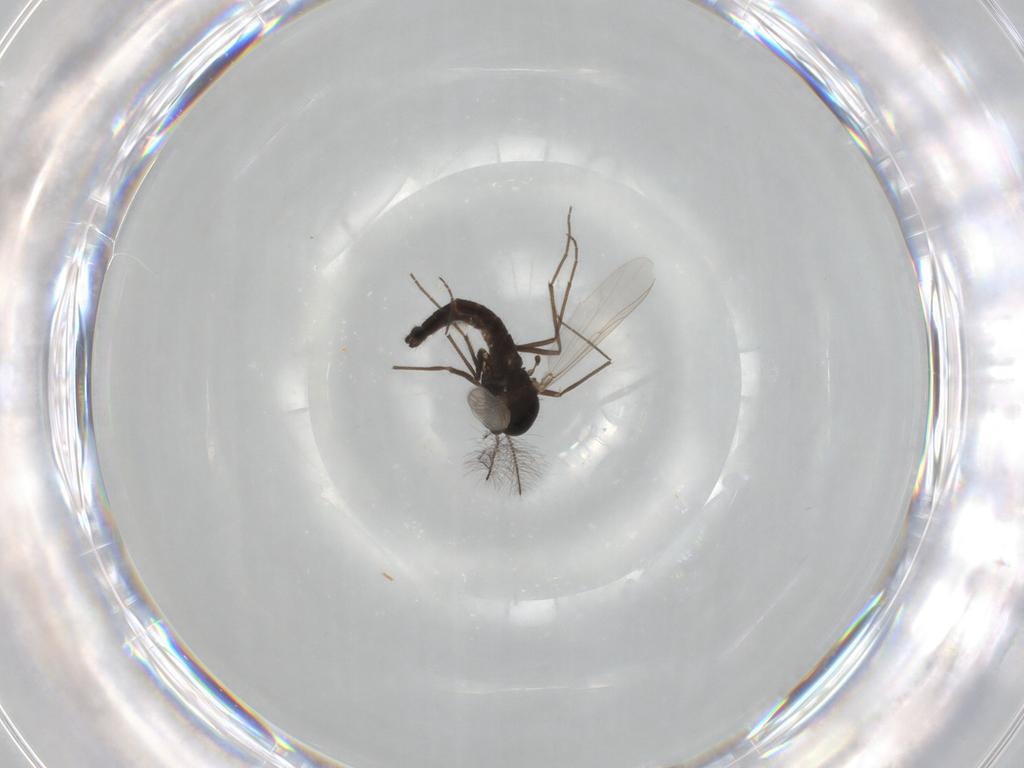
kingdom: Animalia
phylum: Arthropoda
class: Insecta
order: Diptera
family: Chironomidae
